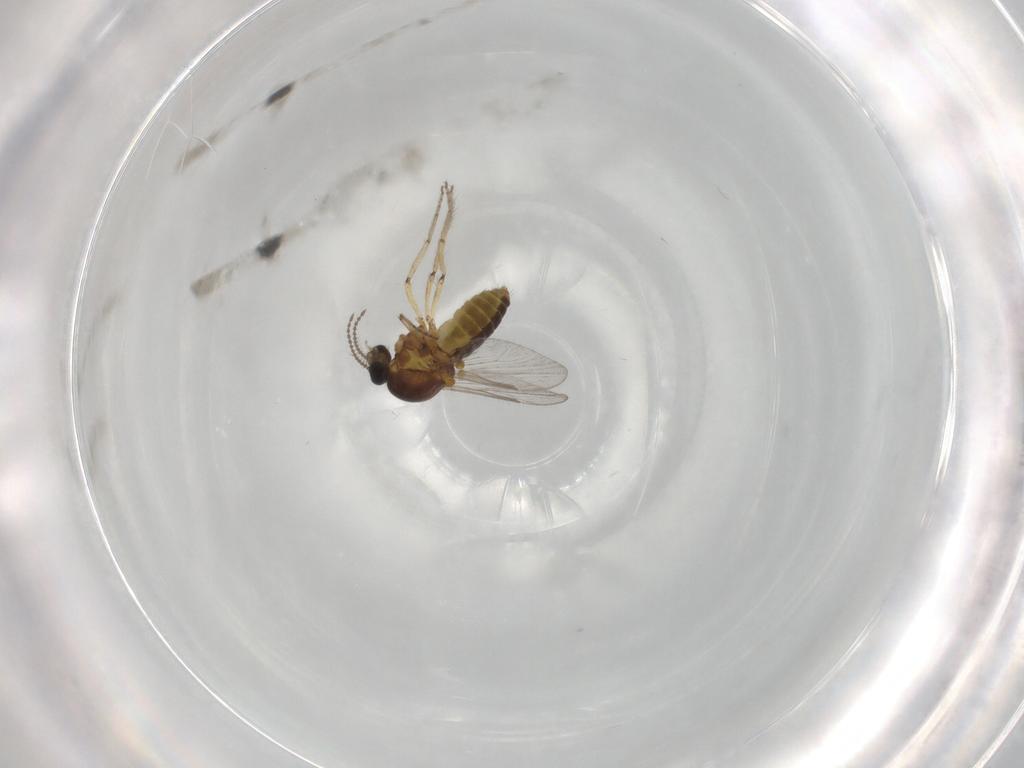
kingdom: Animalia
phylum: Arthropoda
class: Insecta
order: Diptera
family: Ceratopogonidae
